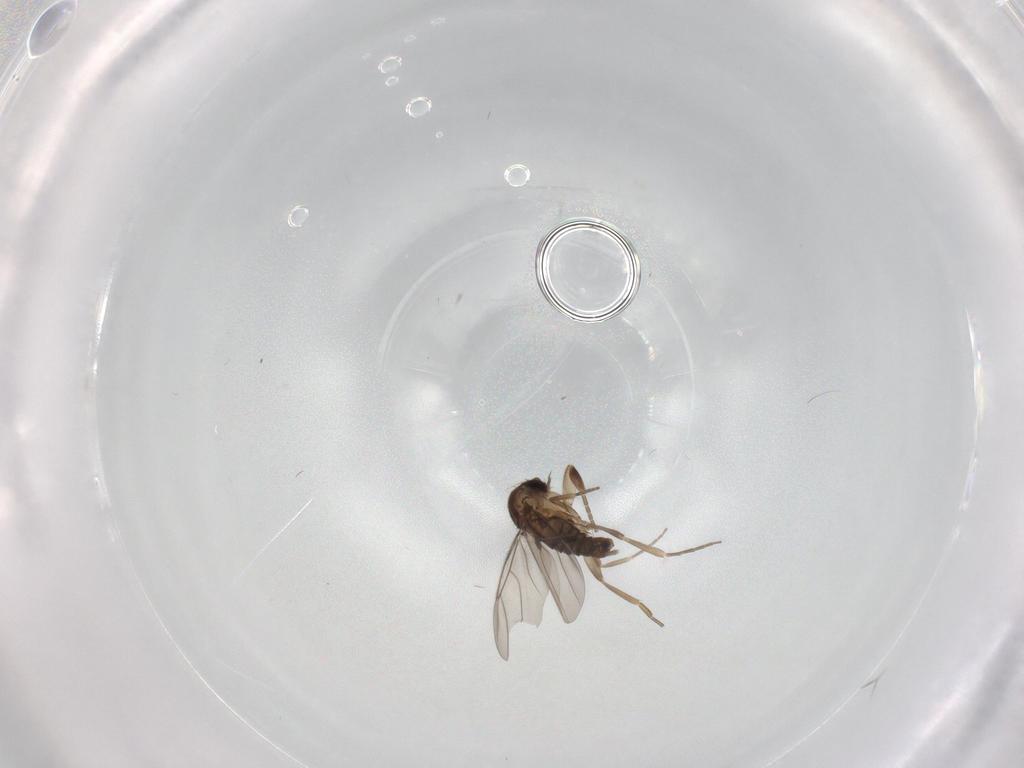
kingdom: Animalia
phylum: Arthropoda
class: Insecta
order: Diptera
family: Phoridae
